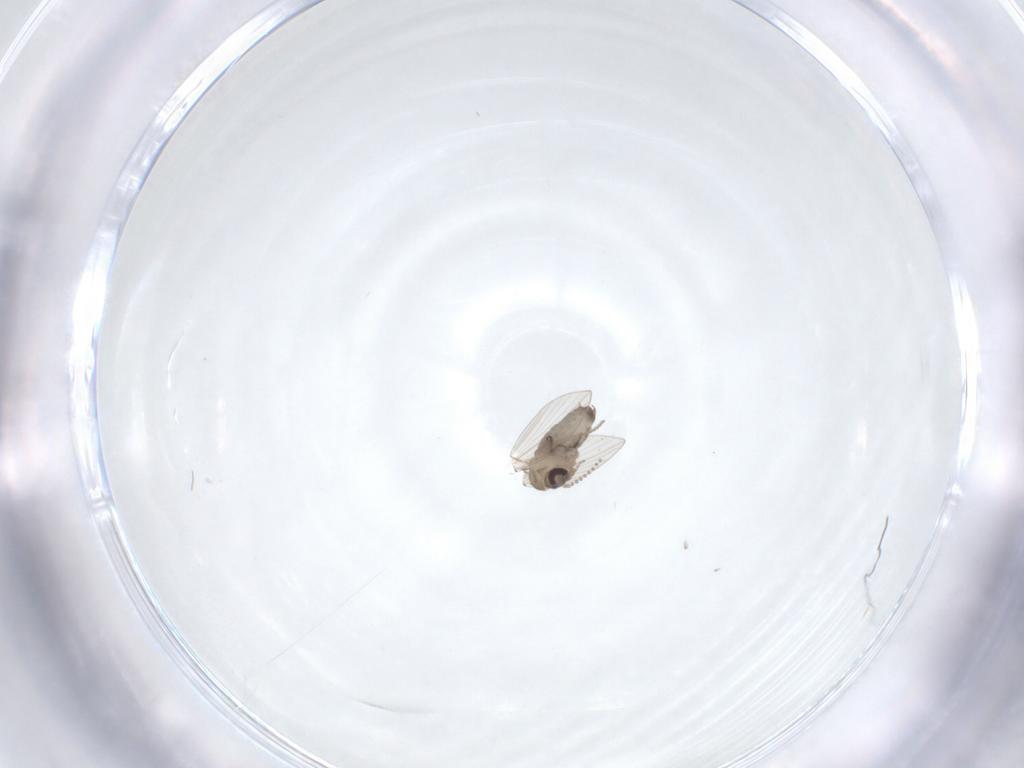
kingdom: Animalia
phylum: Arthropoda
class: Insecta
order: Diptera
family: Psychodidae
